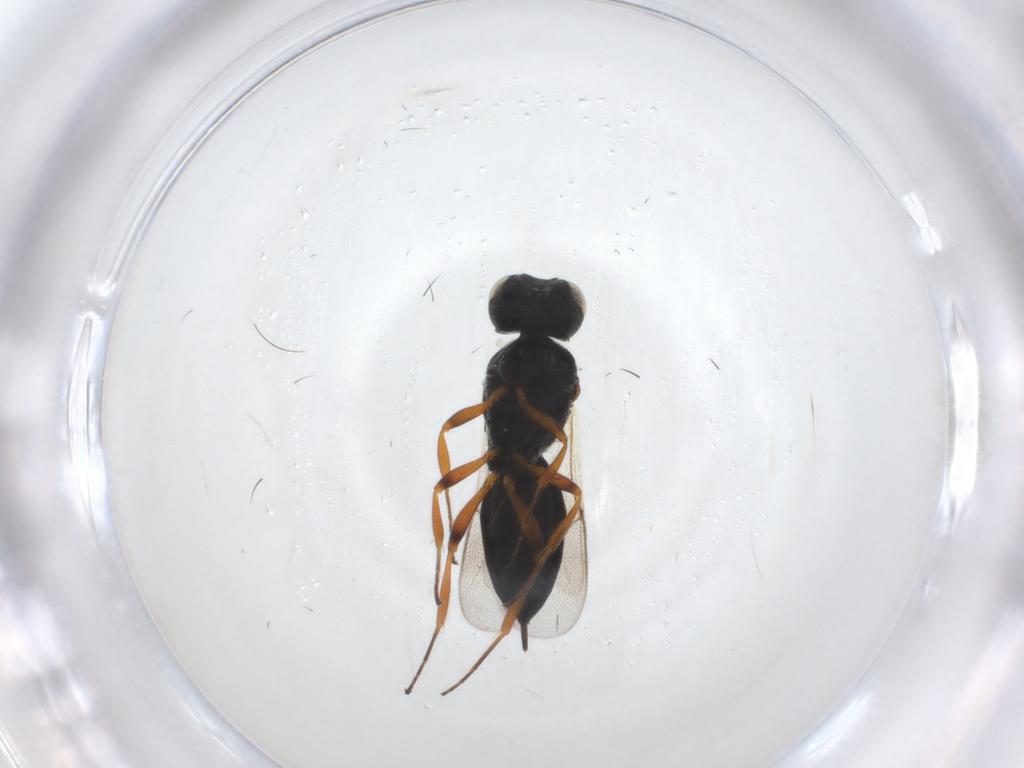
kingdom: Animalia
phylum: Arthropoda
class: Insecta
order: Hymenoptera
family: Scelionidae
